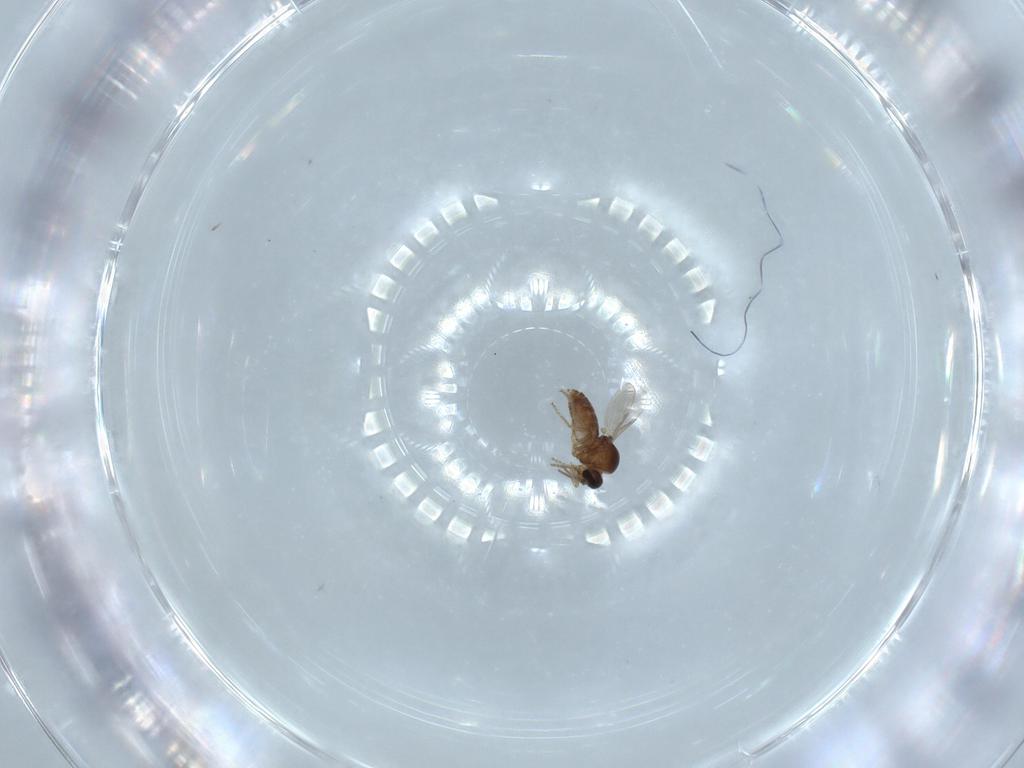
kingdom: Animalia
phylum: Arthropoda
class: Insecta
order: Diptera
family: Ceratopogonidae
